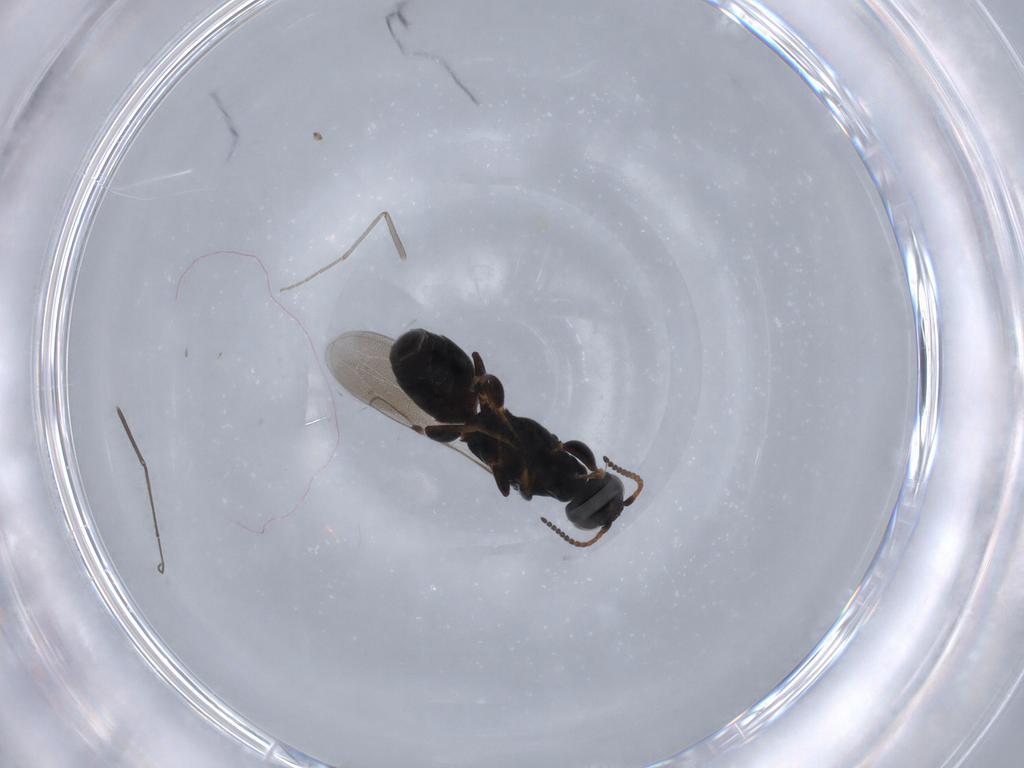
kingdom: Animalia
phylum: Arthropoda
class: Insecta
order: Hymenoptera
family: Bethylidae
